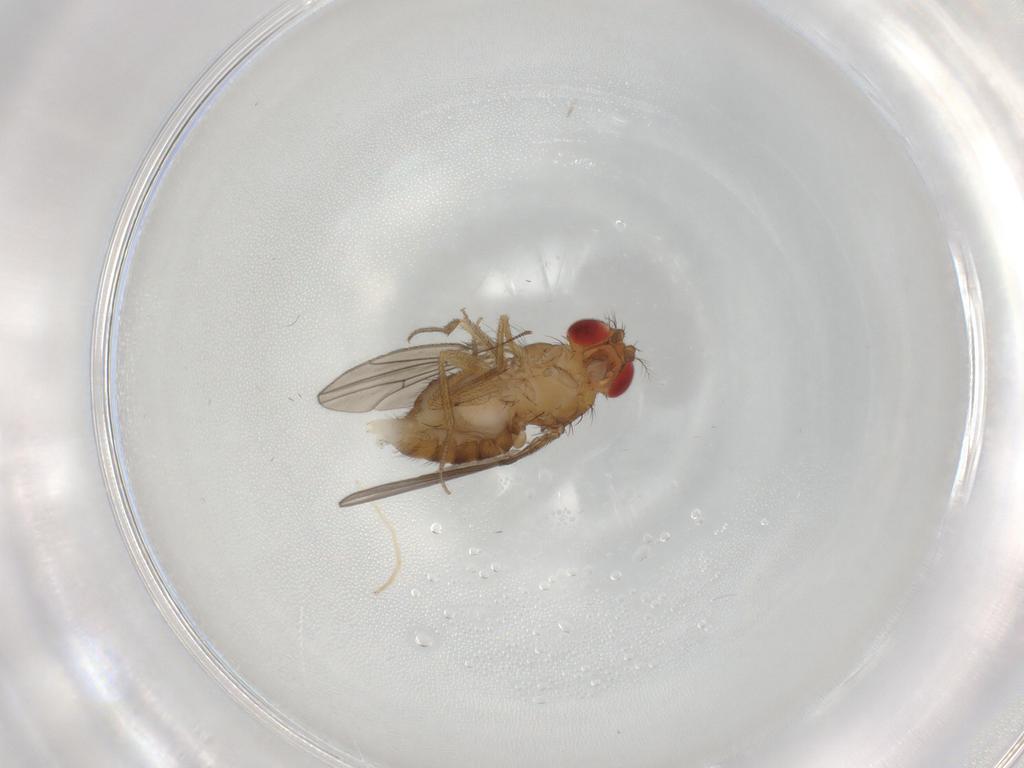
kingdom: Animalia
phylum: Arthropoda
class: Insecta
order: Diptera
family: Drosophilidae
